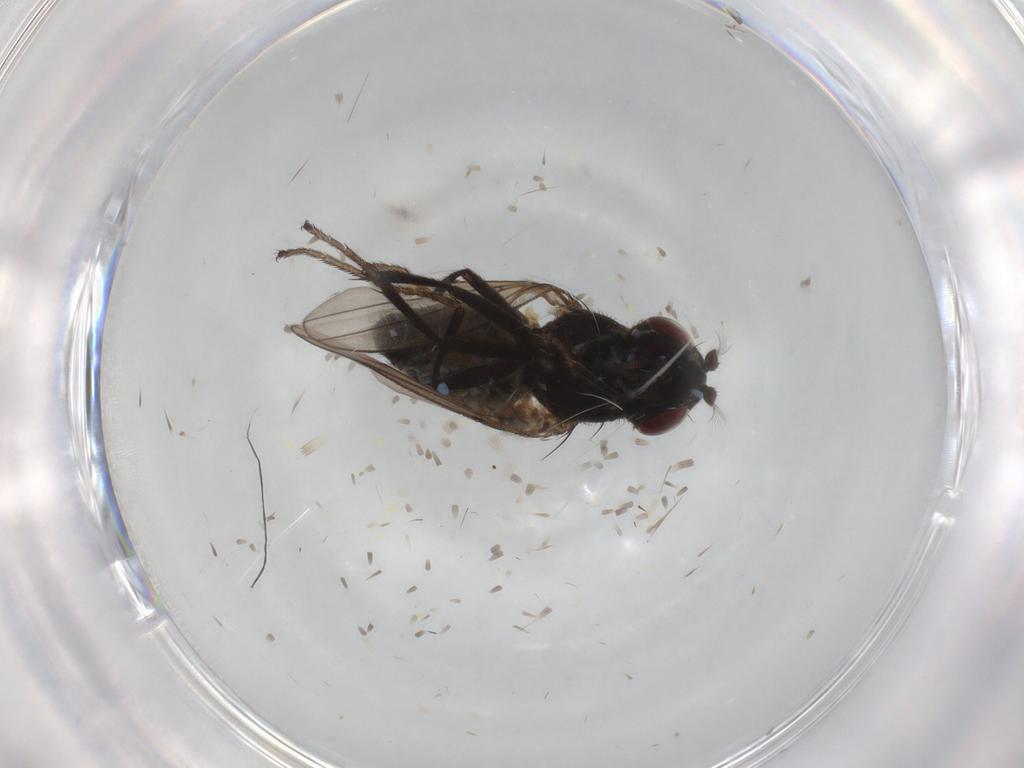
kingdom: Animalia
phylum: Arthropoda
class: Insecta
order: Diptera
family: Ephydridae
